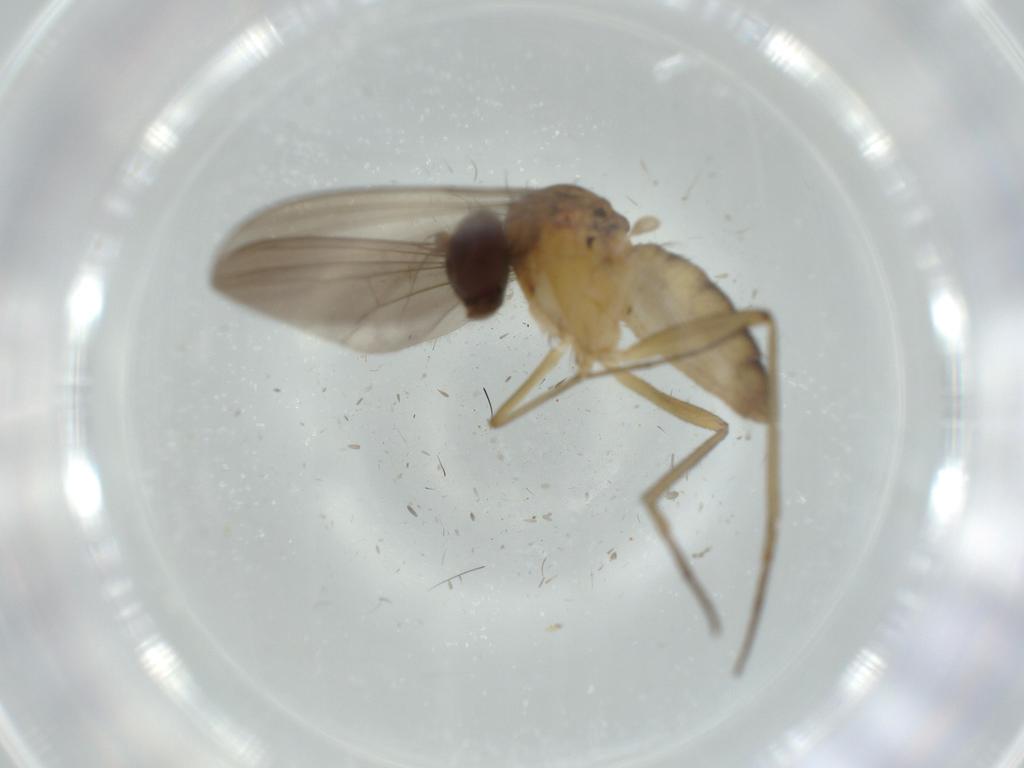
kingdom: Animalia
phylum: Arthropoda
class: Insecta
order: Diptera
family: Dolichopodidae
